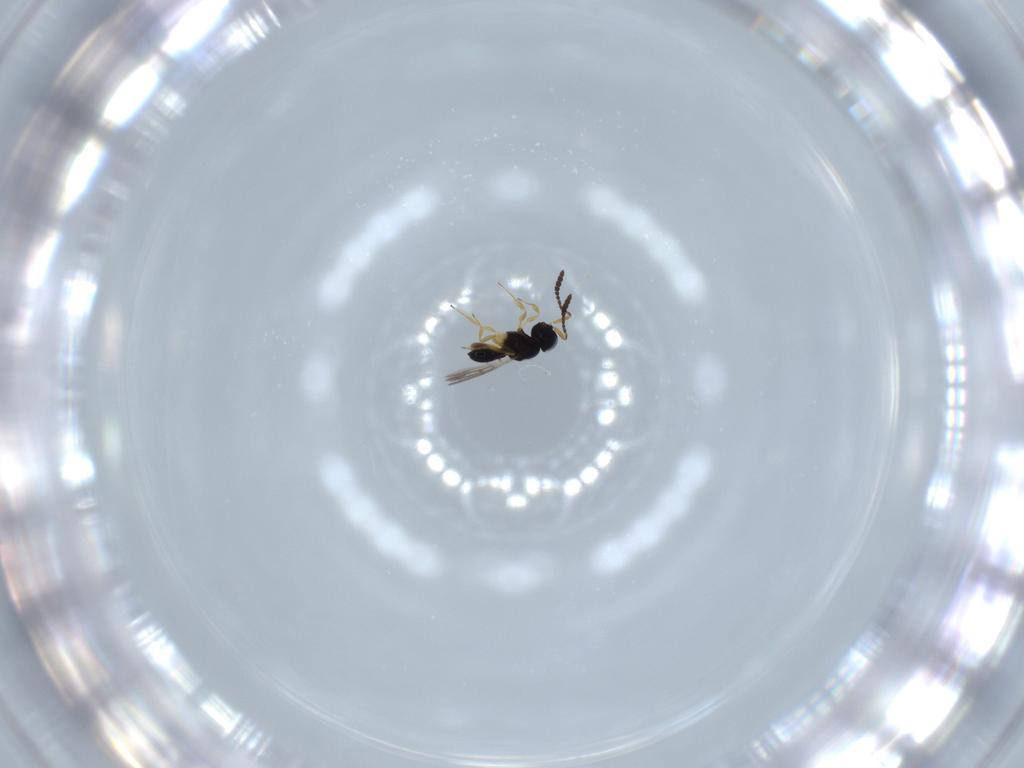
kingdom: Animalia
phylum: Arthropoda
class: Insecta
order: Hymenoptera
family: Scelionidae
